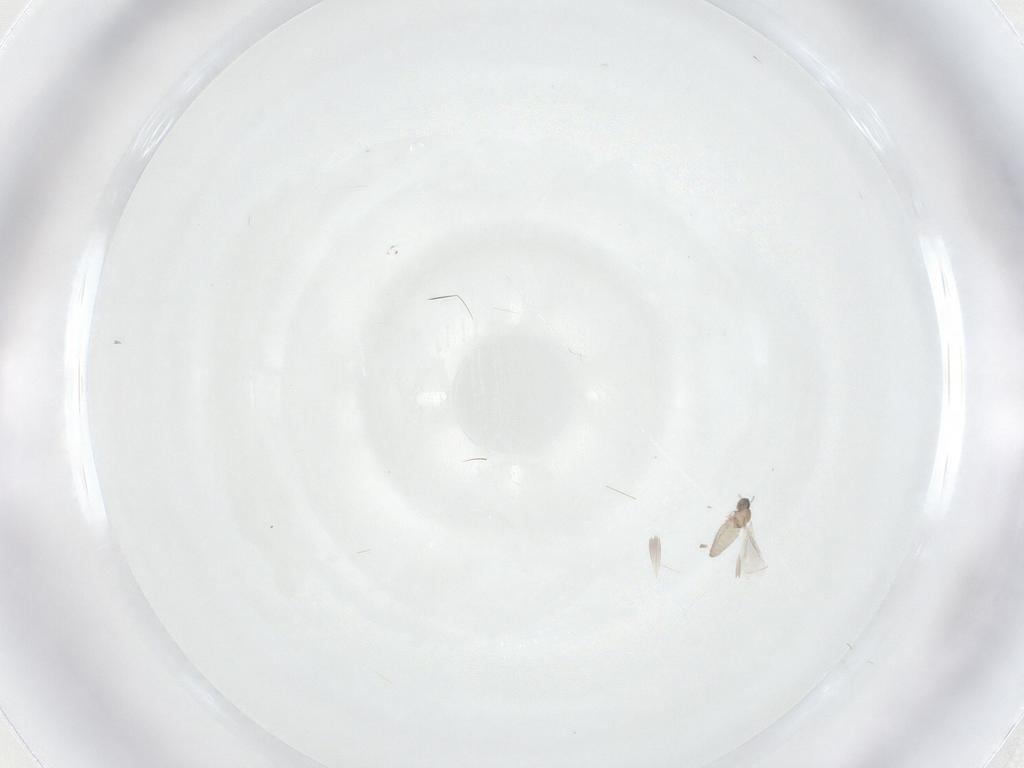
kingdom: Animalia
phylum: Arthropoda
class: Insecta
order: Diptera
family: Cecidomyiidae
